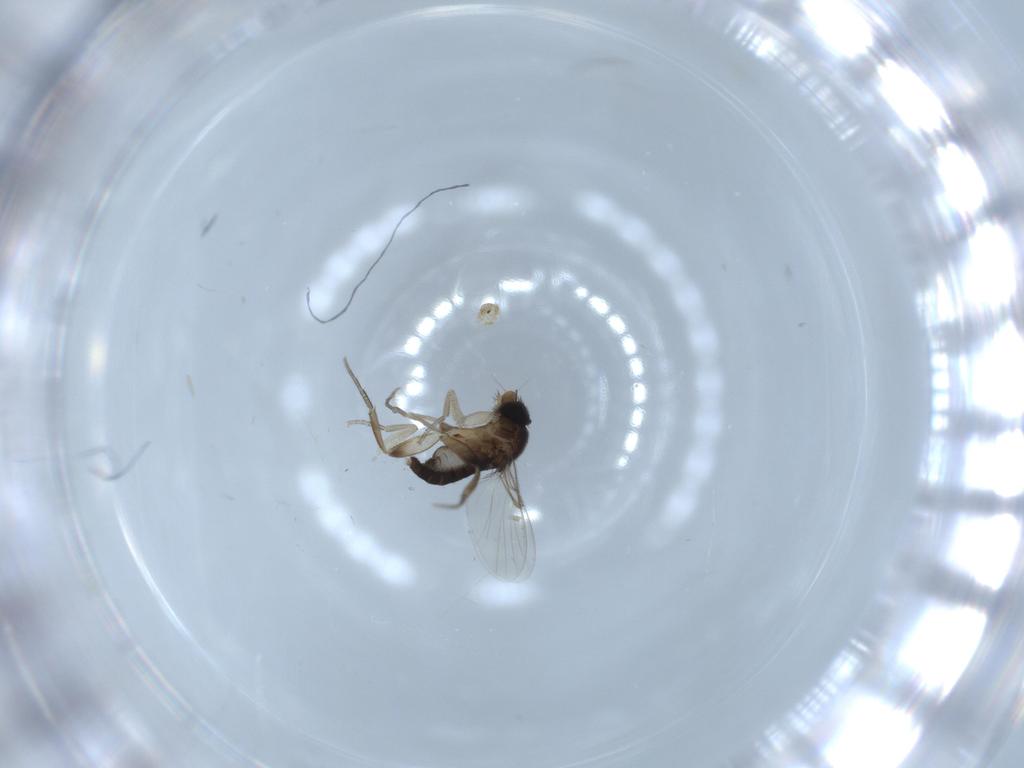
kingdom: Animalia
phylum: Arthropoda
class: Insecta
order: Diptera
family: Phoridae
